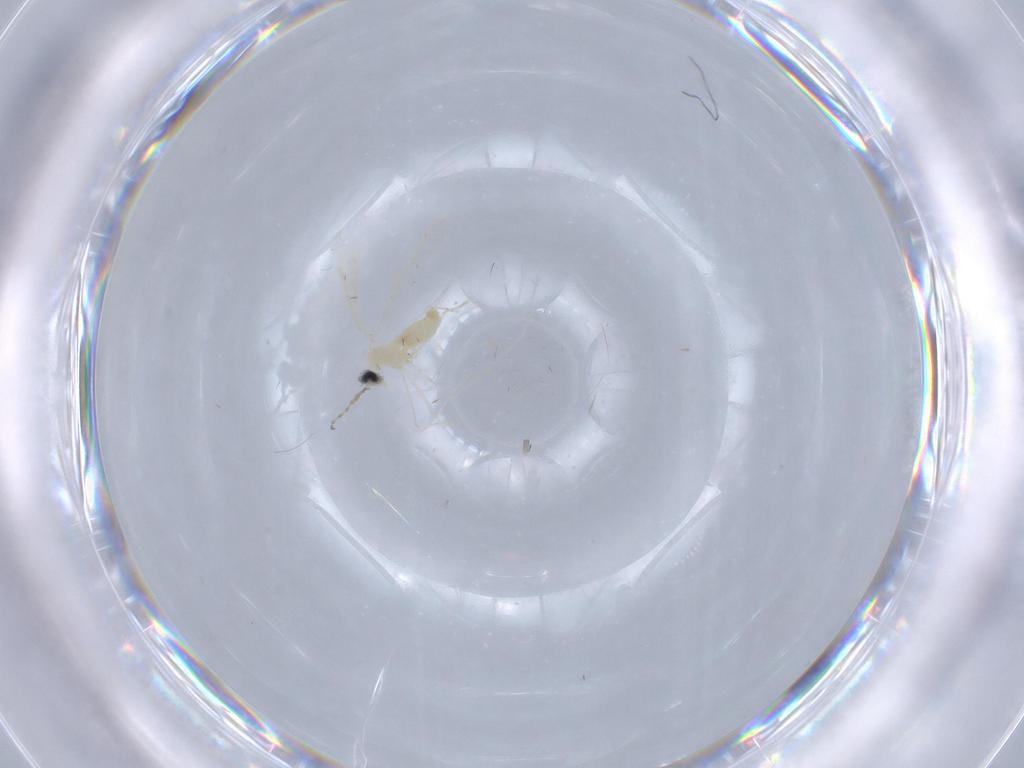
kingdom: Animalia
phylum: Arthropoda
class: Insecta
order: Diptera
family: Cecidomyiidae
